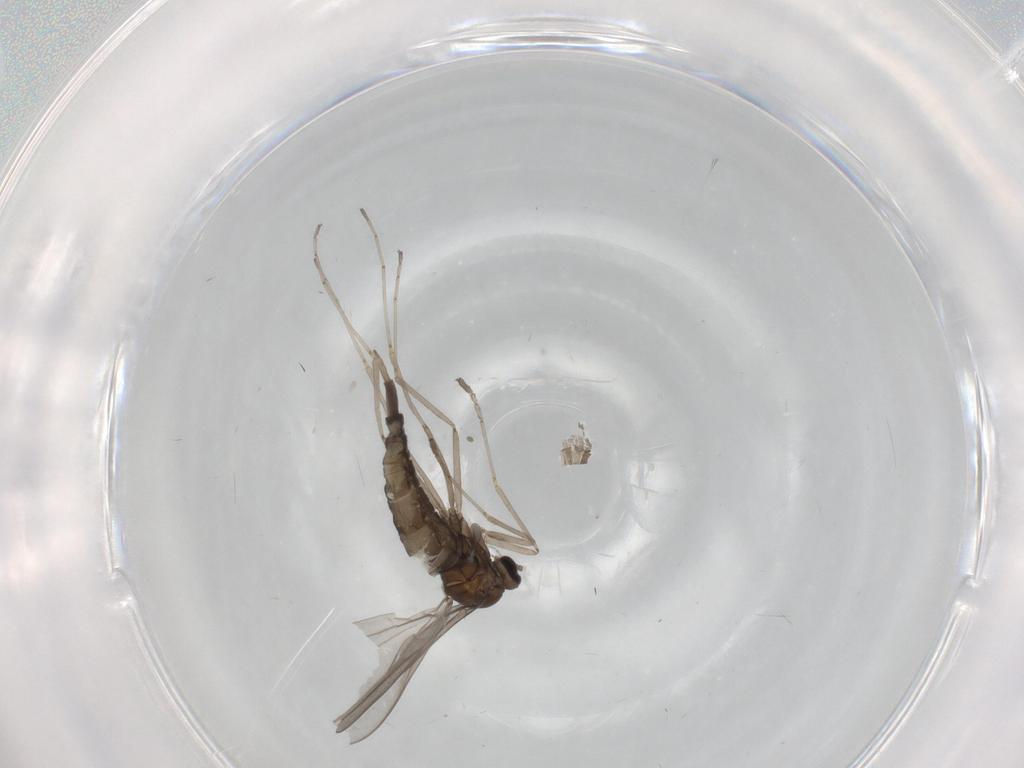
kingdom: Animalia
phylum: Arthropoda
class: Insecta
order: Diptera
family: Cecidomyiidae
